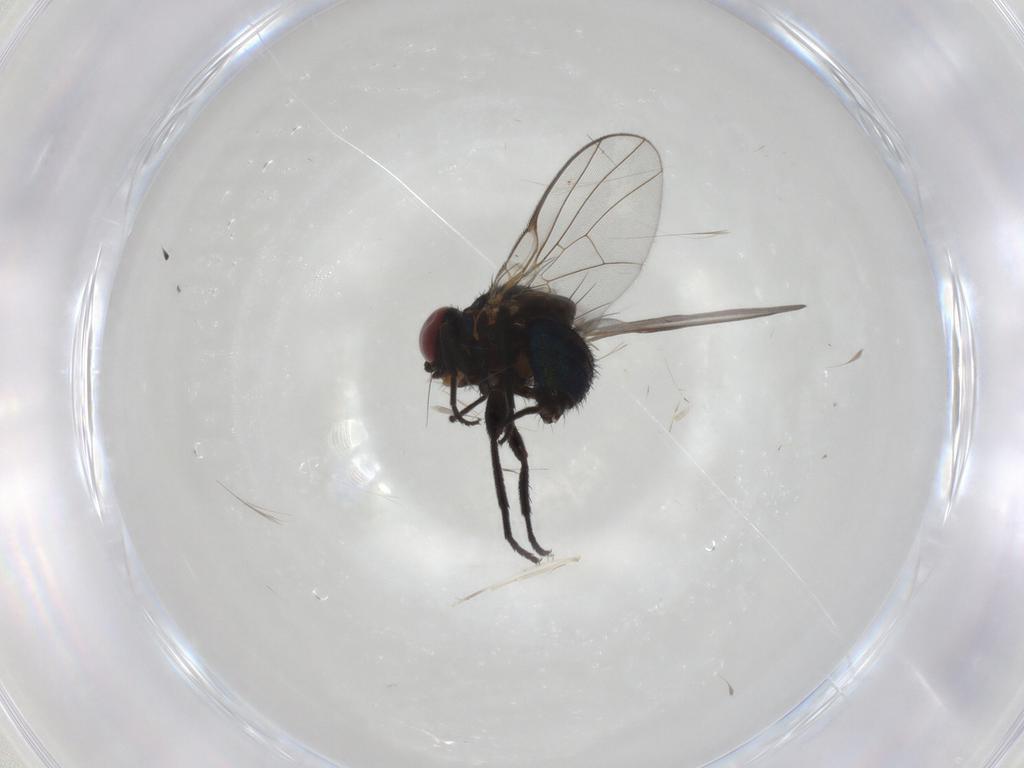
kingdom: Animalia
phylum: Arthropoda
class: Insecta
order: Diptera
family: Agromyzidae
